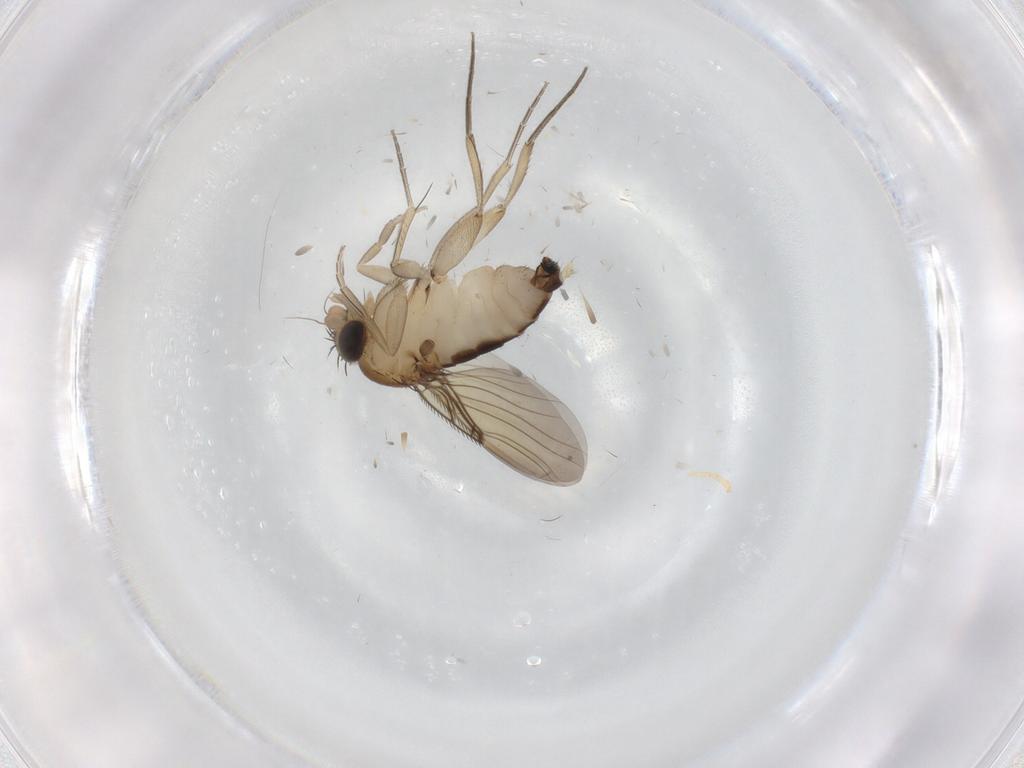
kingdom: Animalia
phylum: Arthropoda
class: Insecta
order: Diptera
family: Phoridae
